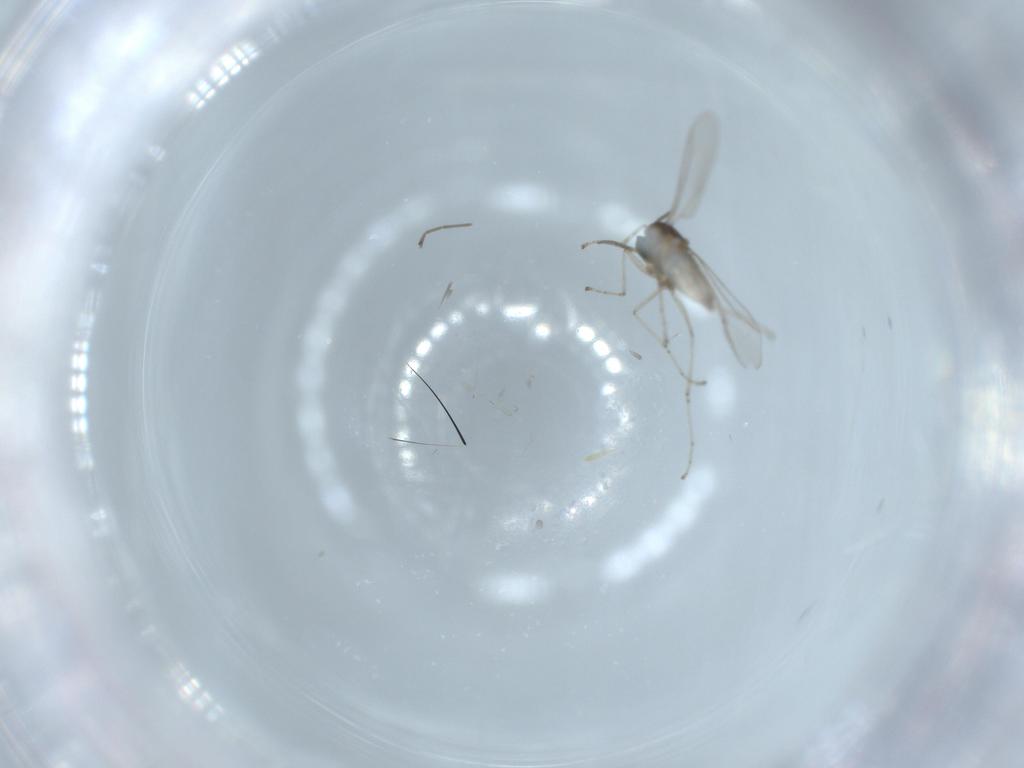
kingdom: Animalia
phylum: Arthropoda
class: Insecta
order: Diptera
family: Cecidomyiidae
